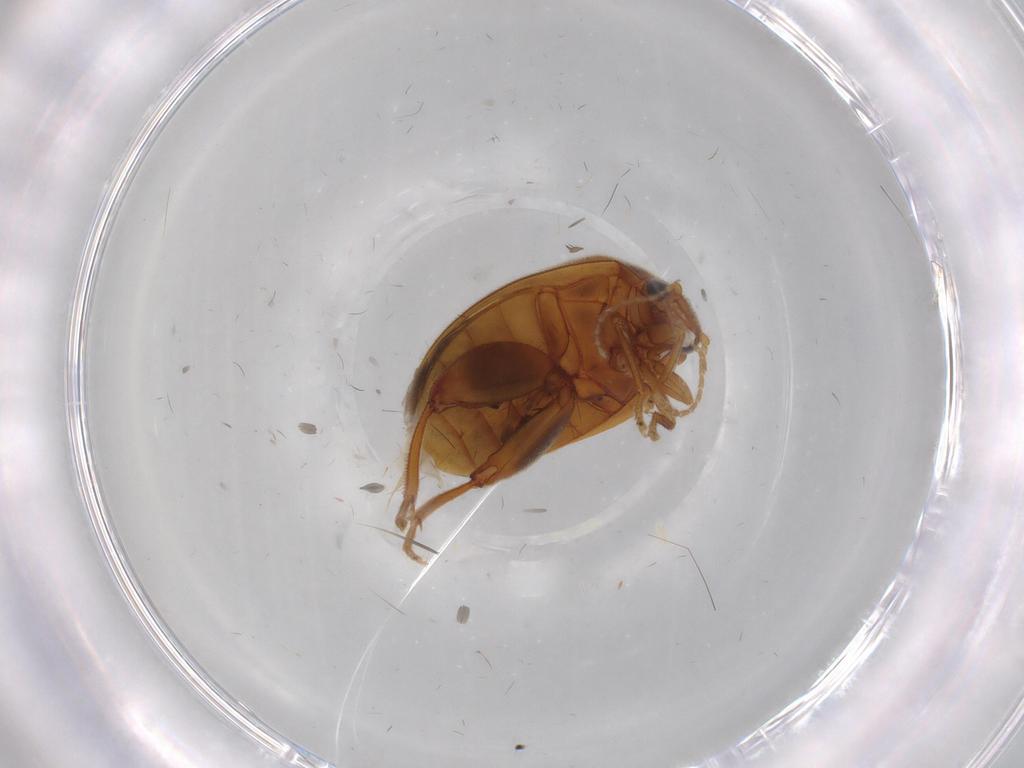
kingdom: Animalia
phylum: Arthropoda
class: Insecta
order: Coleoptera
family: Scirtidae
